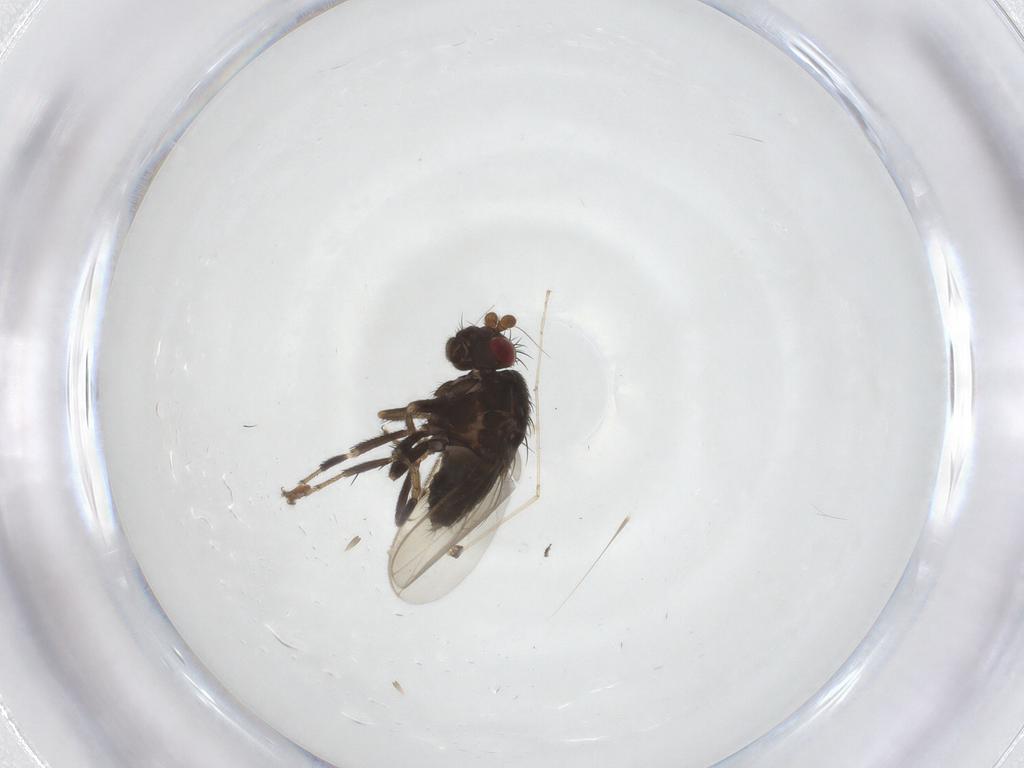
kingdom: Animalia
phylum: Arthropoda
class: Insecta
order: Diptera
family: Sphaeroceridae
